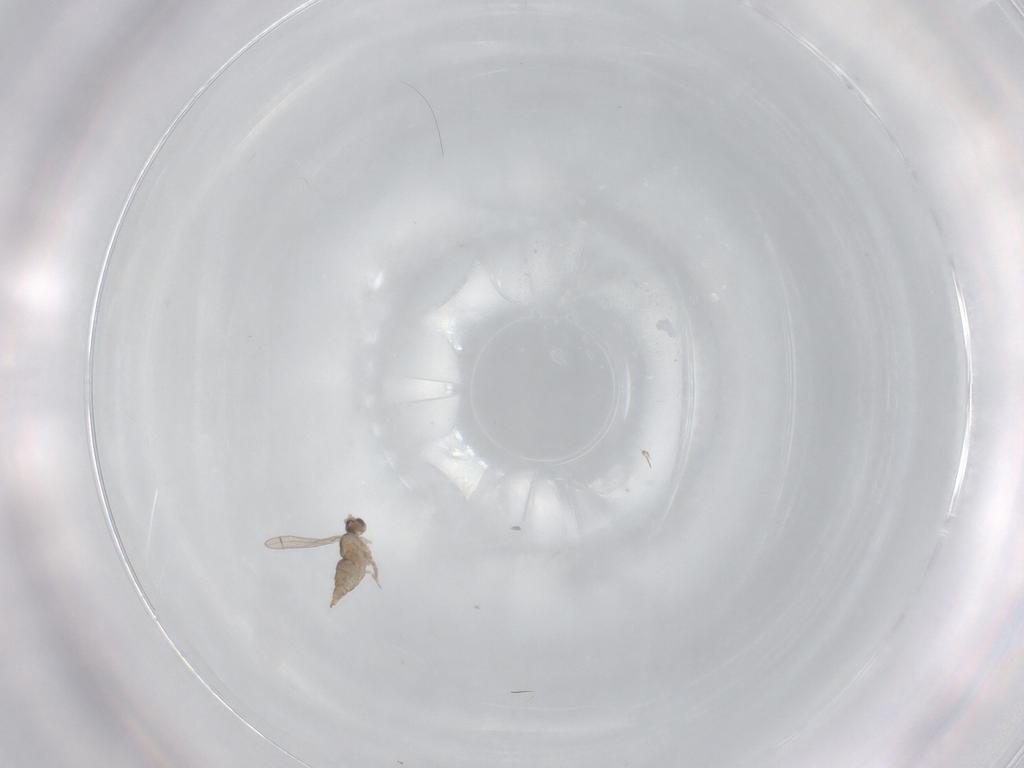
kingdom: Animalia
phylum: Arthropoda
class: Insecta
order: Diptera
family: Cecidomyiidae
